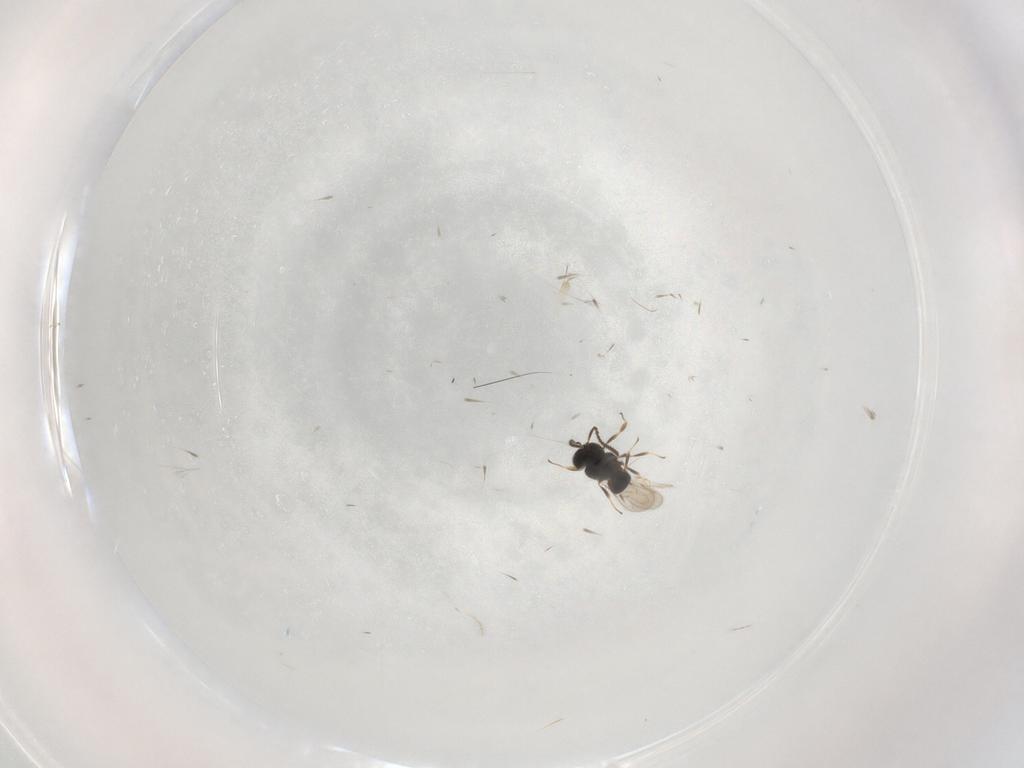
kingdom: Animalia
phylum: Arthropoda
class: Insecta
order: Hymenoptera
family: Scelionidae
